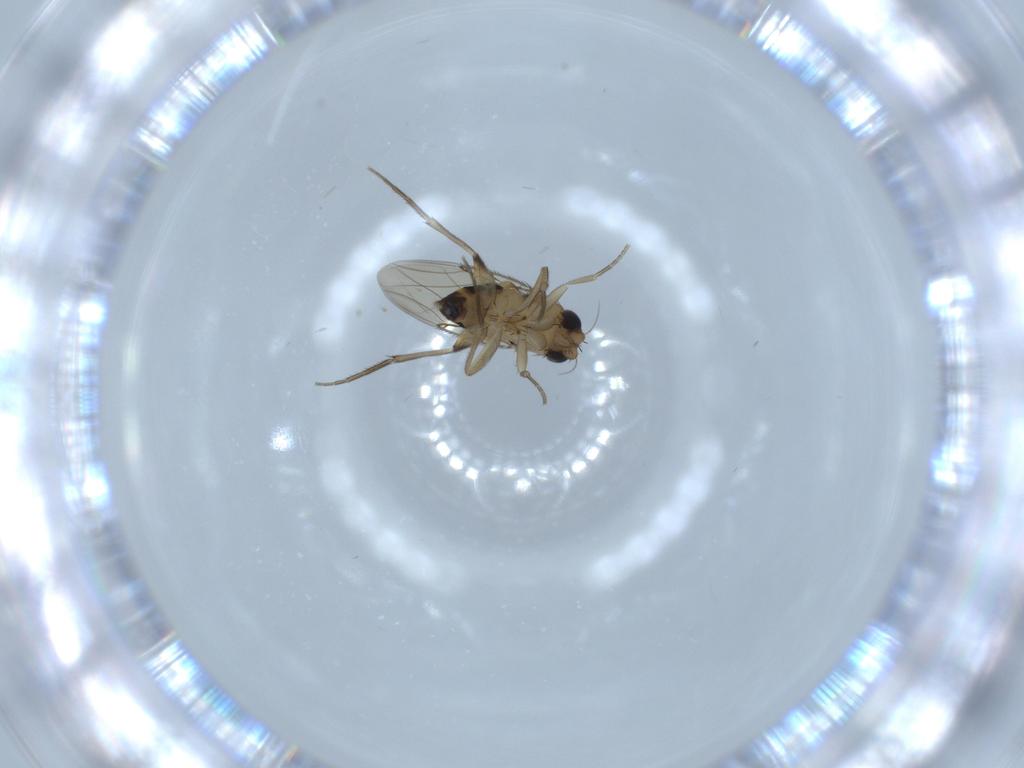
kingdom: Animalia
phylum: Arthropoda
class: Insecta
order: Diptera
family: Phoridae
